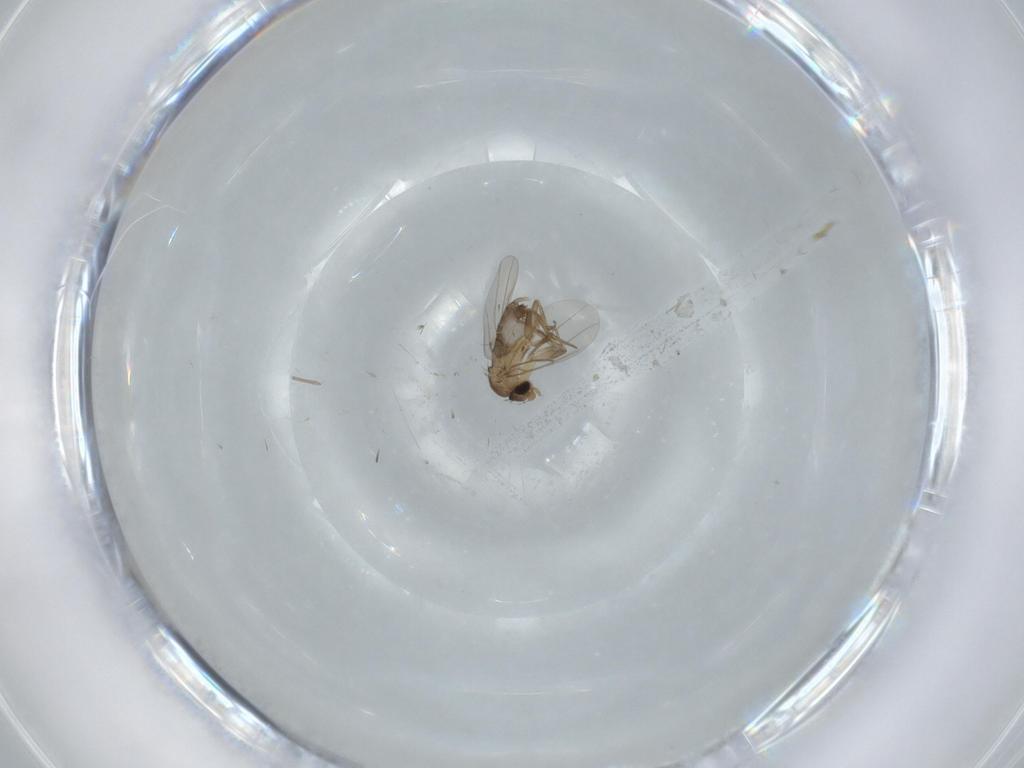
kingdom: Animalia
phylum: Arthropoda
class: Insecta
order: Diptera
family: Phoridae
